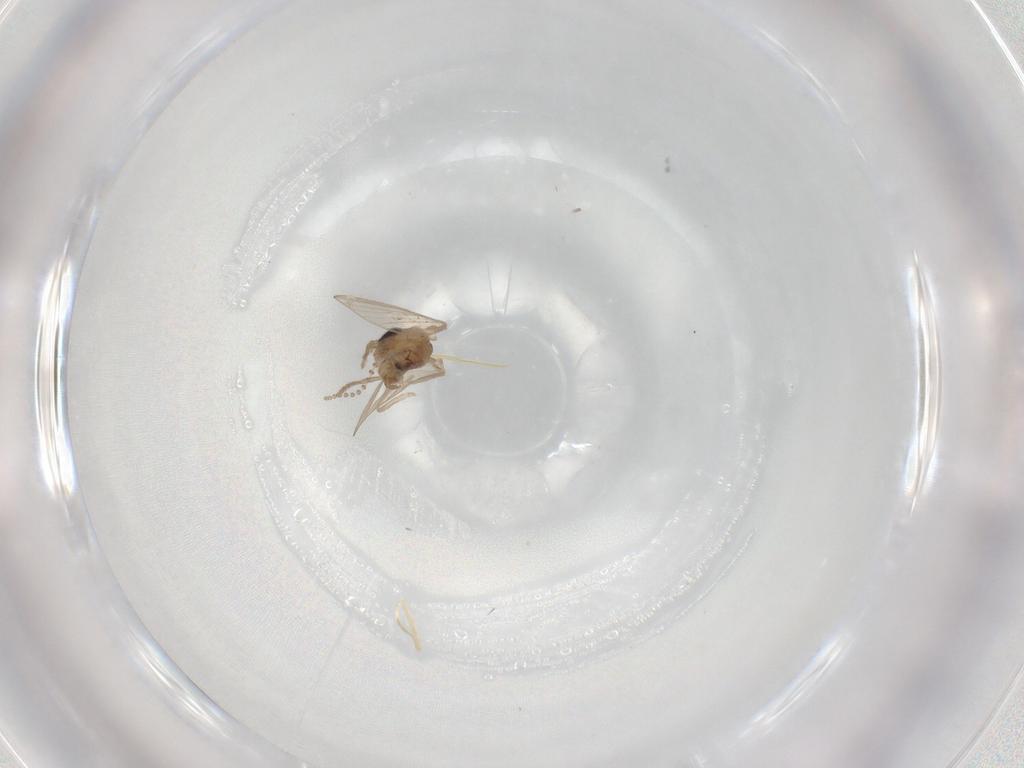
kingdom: Animalia
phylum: Arthropoda
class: Insecta
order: Diptera
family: Psychodidae
